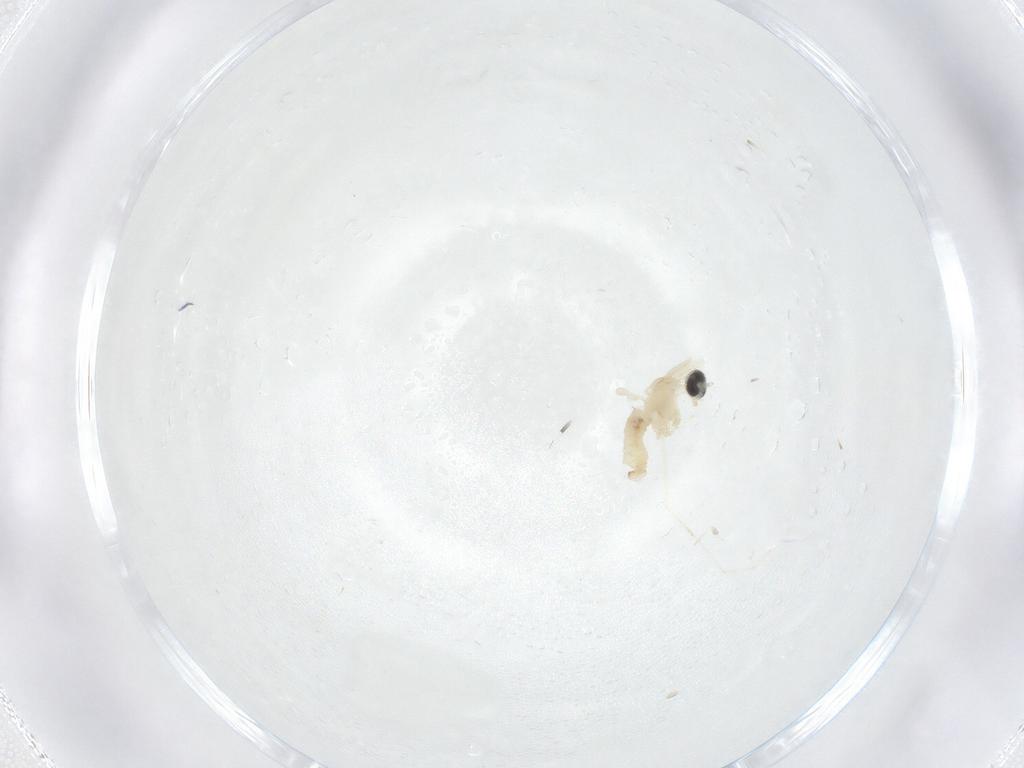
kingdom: Animalia
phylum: Arthropoda
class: Insecta
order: Diptera
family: Cecidomyiidae
